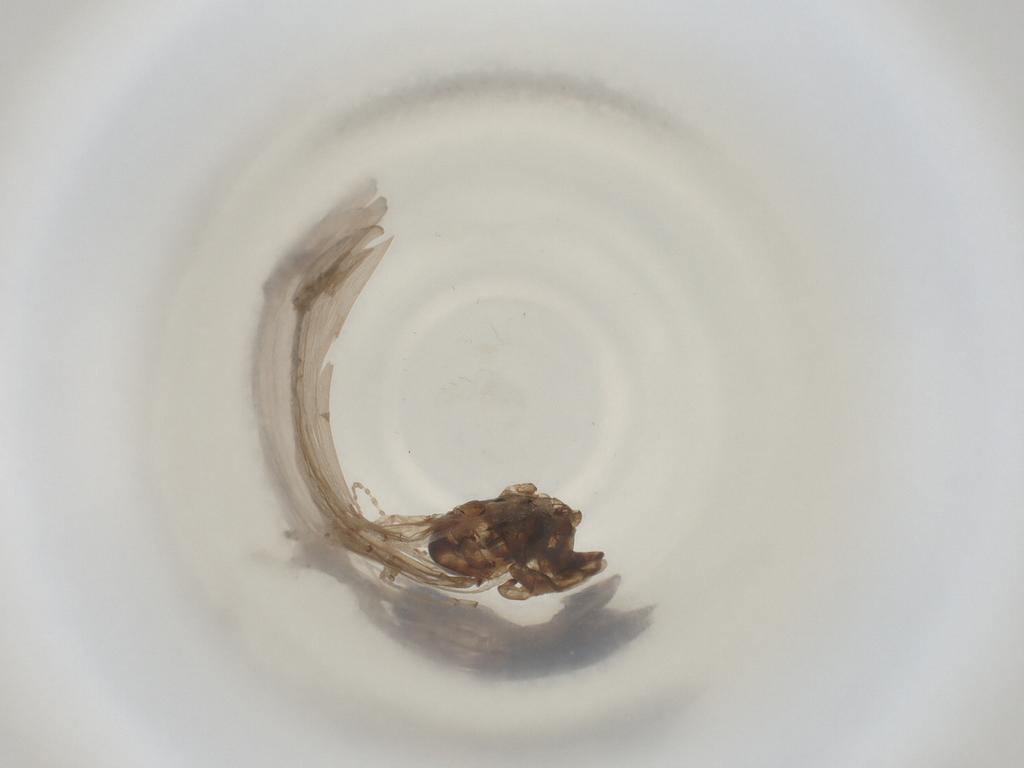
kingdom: Animalia
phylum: Arthropoda
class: Insecta
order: Diptera
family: Cecidomyiidae
